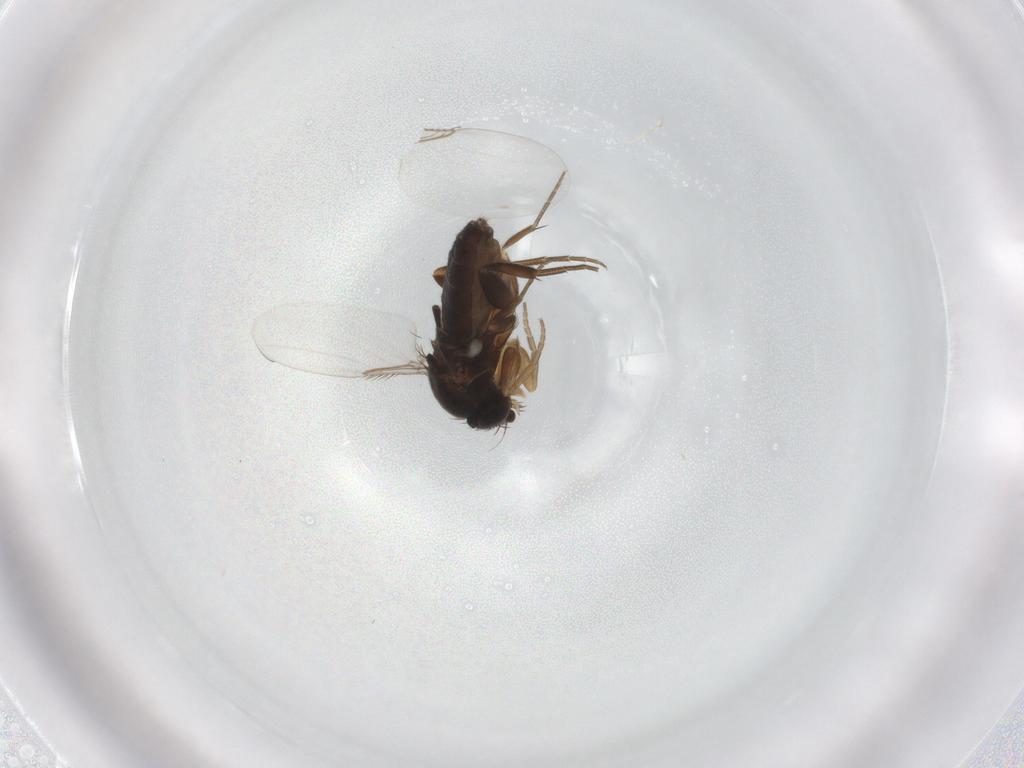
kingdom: Animalia
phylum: Arthropoda
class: Insecta
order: Diptera
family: Phoridae
